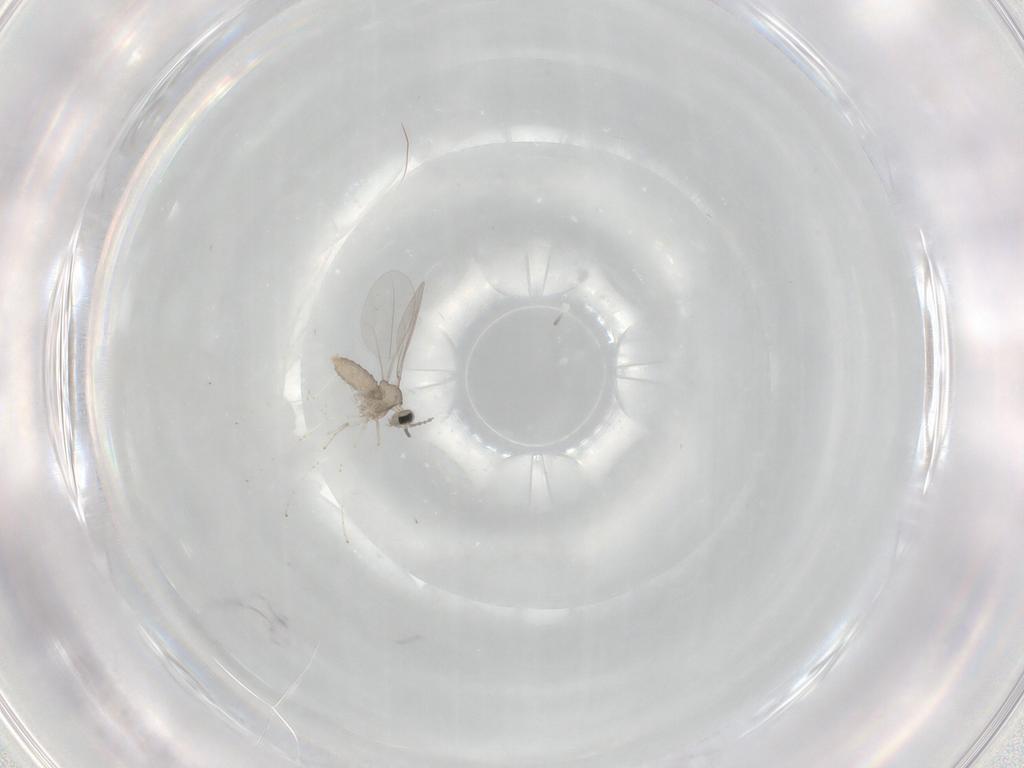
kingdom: Animalia
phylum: Arthropoda
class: Insecta
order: Diptera
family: Cecidomyiidae
